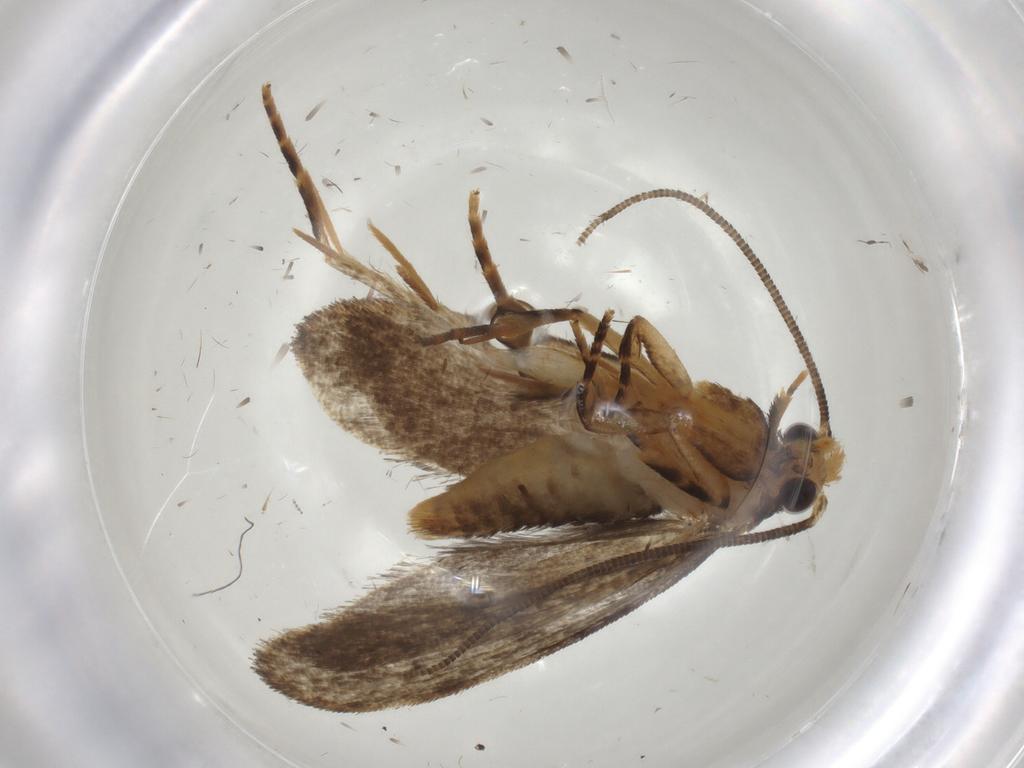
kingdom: Animalia
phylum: Arthropoda
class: Insecta
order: Lepidoptera
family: Tineidae
